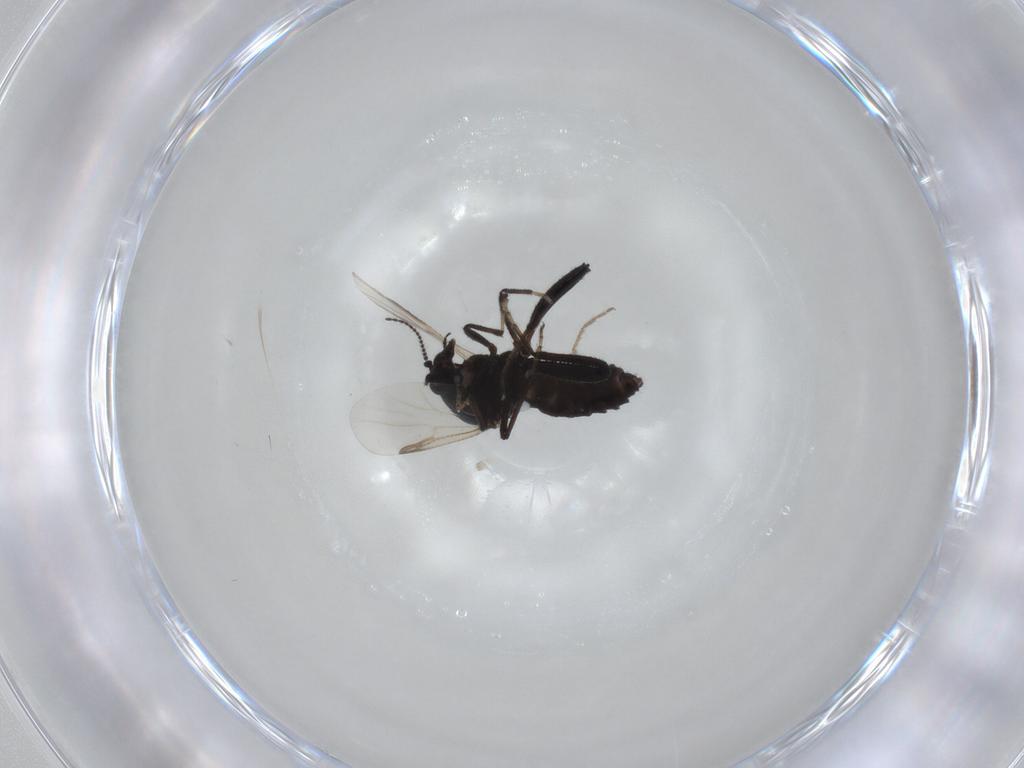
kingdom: Animalia
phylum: Arthropoda
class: Insecta
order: Diptera
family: Ceratopogonidae
